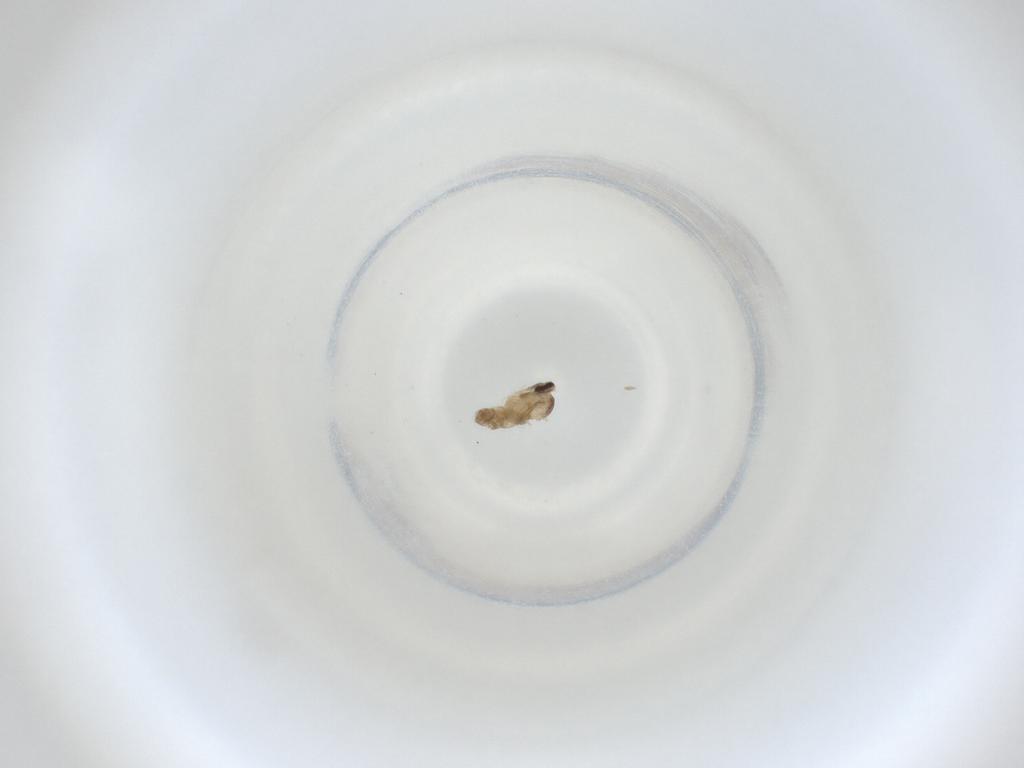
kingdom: Animalia
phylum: Arthropoda
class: Insecta
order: Diptera
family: Cecidomyiidae
